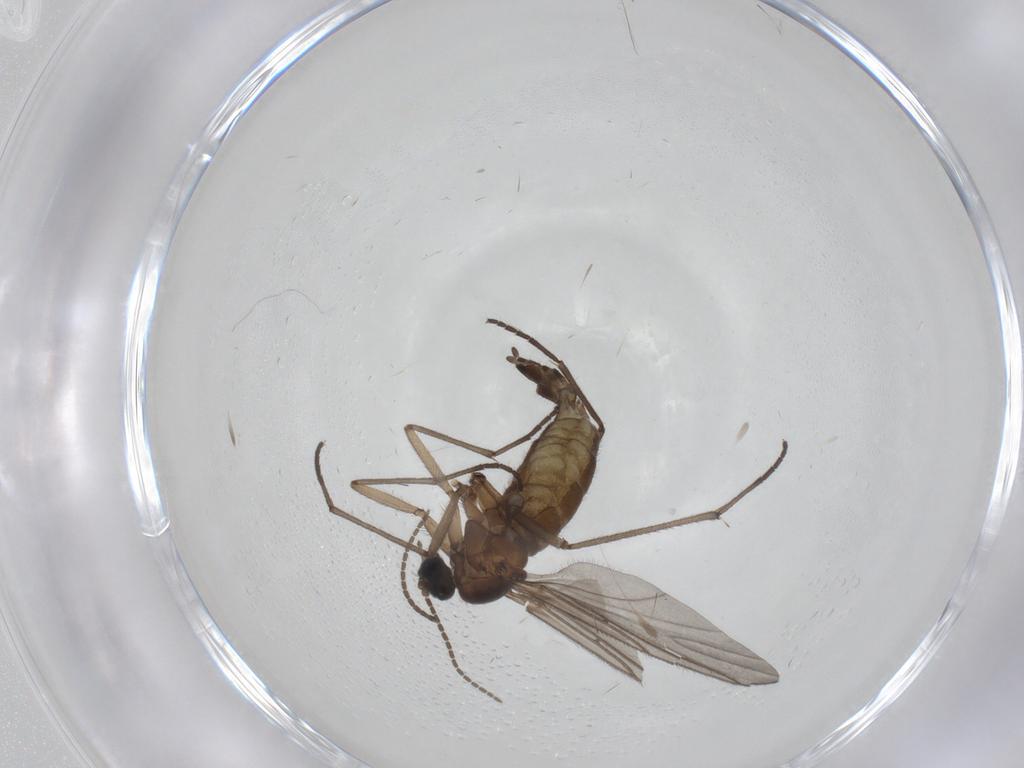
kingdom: Animalia
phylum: Arthropoda
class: Insecta
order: Diptera
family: Sciaridae
